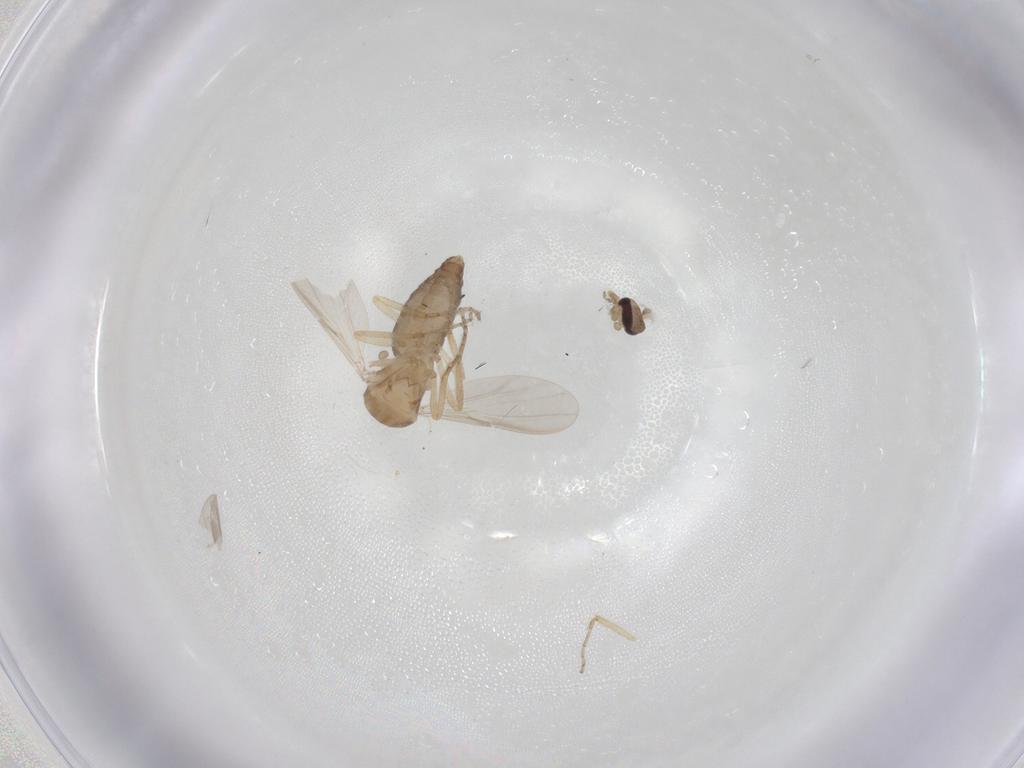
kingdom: Animalia
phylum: Arthropoda
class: Insecta
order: Diptera
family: Ceratopogonidae
